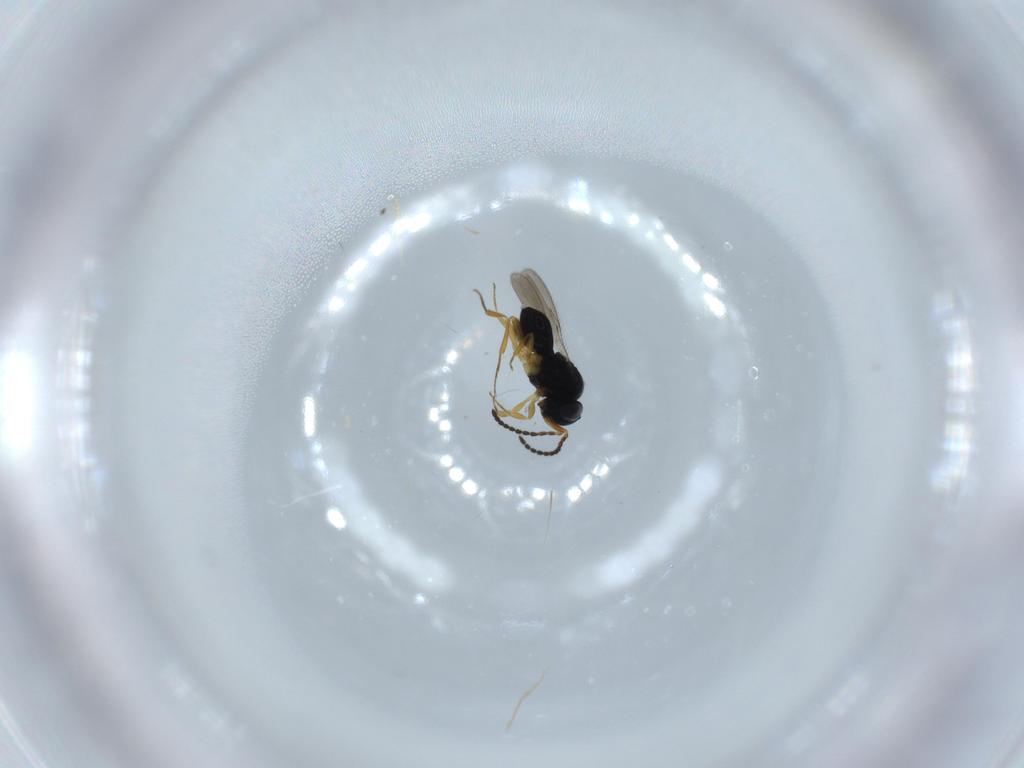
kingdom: Animalia
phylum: Arthropoda
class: Insecta
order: Hymenoptera
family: Scelionidae
